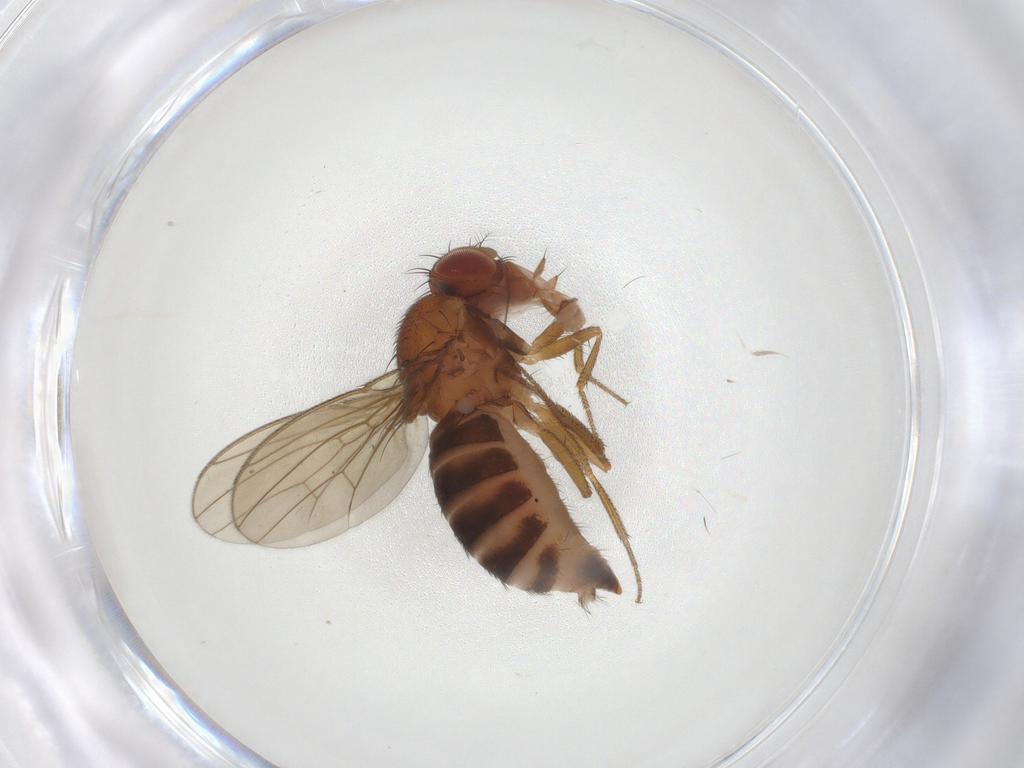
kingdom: Animalia
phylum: Arthropoda
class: Insecta
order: Diptera
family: Drosophilidae
